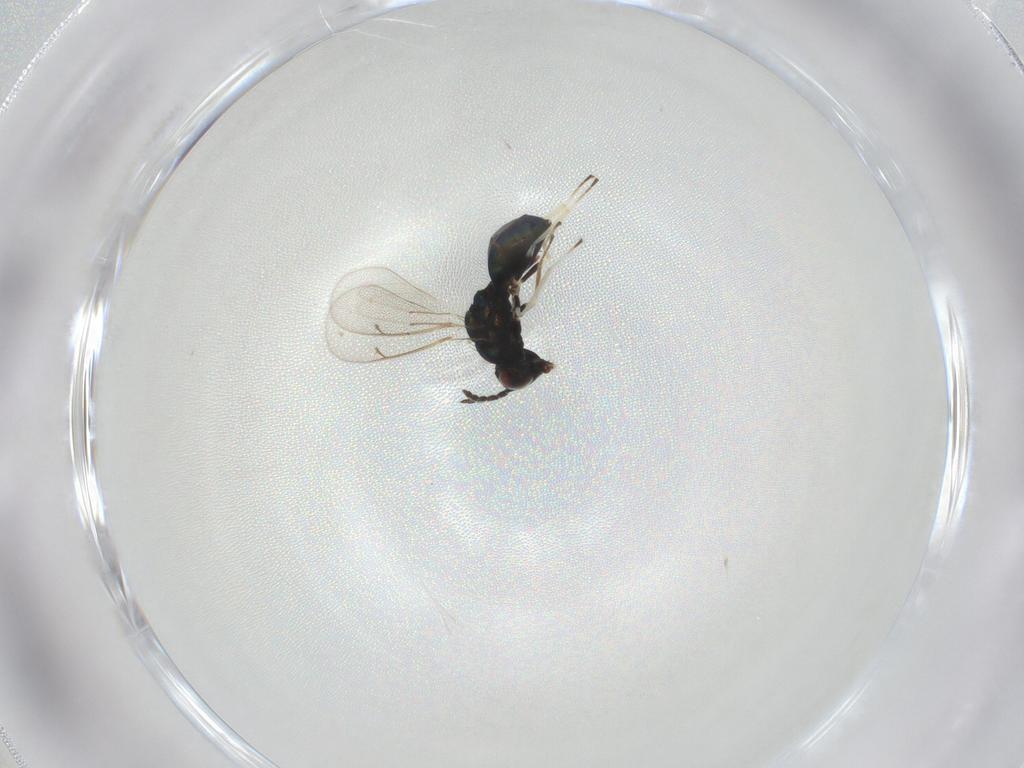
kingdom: Animalia
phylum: Arthropoda
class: Insecta
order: Hymenoptera
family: Eulophidae
